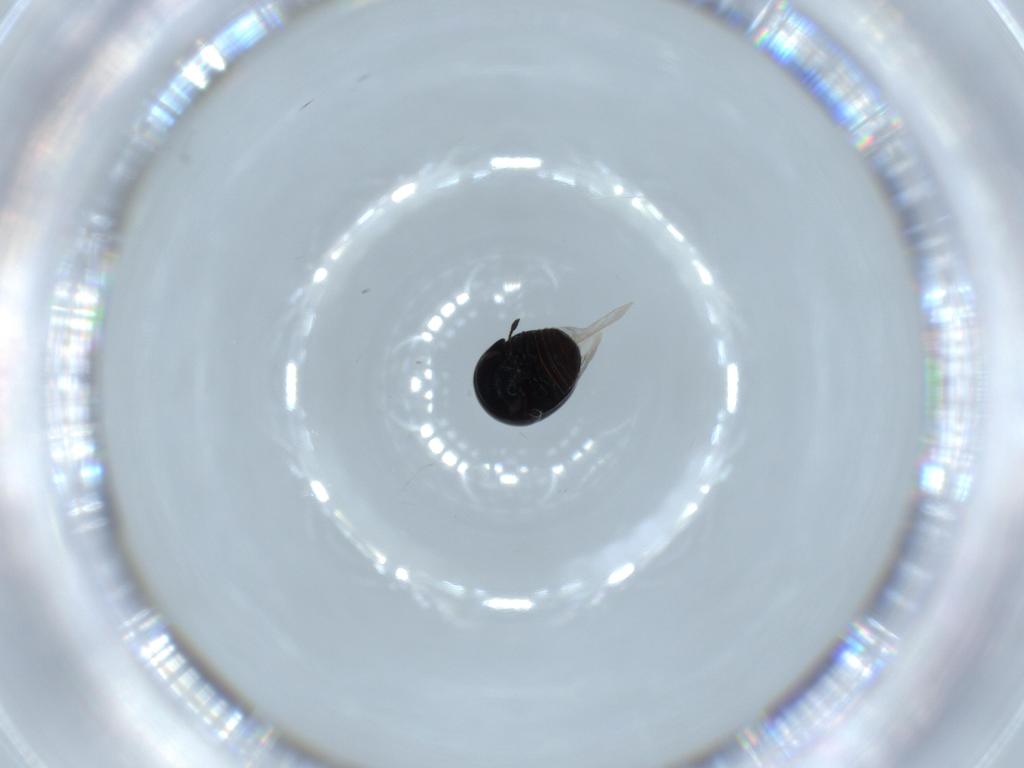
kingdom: Animalia
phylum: Arthropoda
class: Insecta
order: Coleoptera
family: Cybocephalidae
